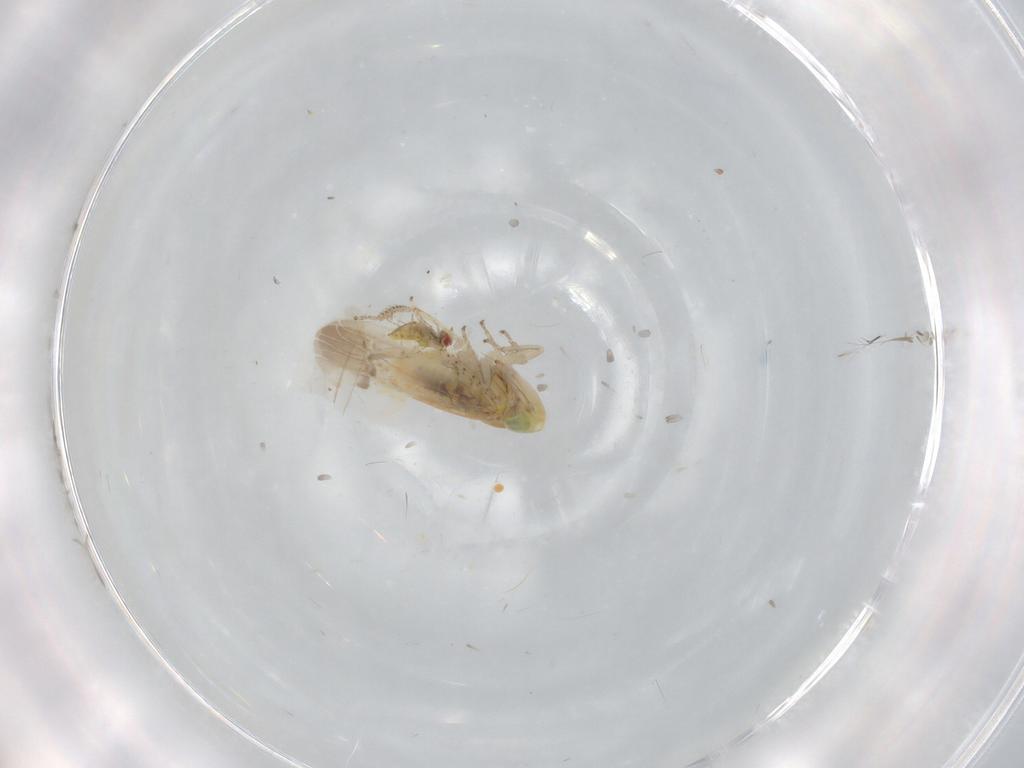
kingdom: Animalia
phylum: Arthropoda
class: Insecta
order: Hemiptera
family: Cicadellidae
